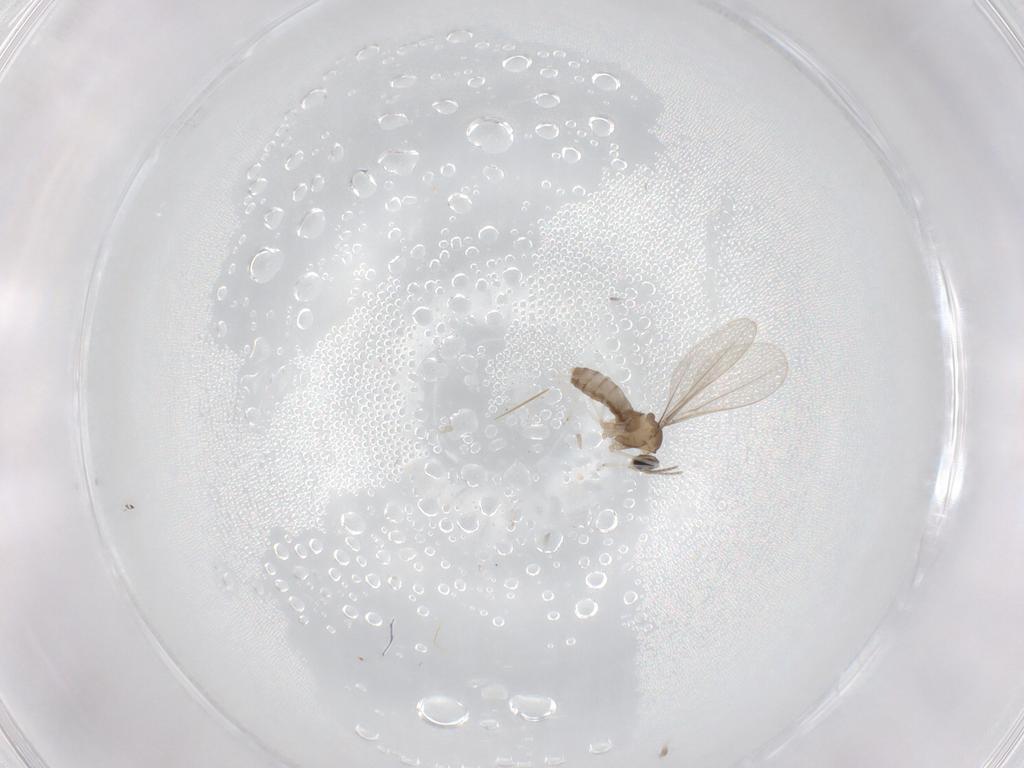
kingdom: Animalia
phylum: Arthropoda
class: Insecta
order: Diptera
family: Cecidomyiidae
